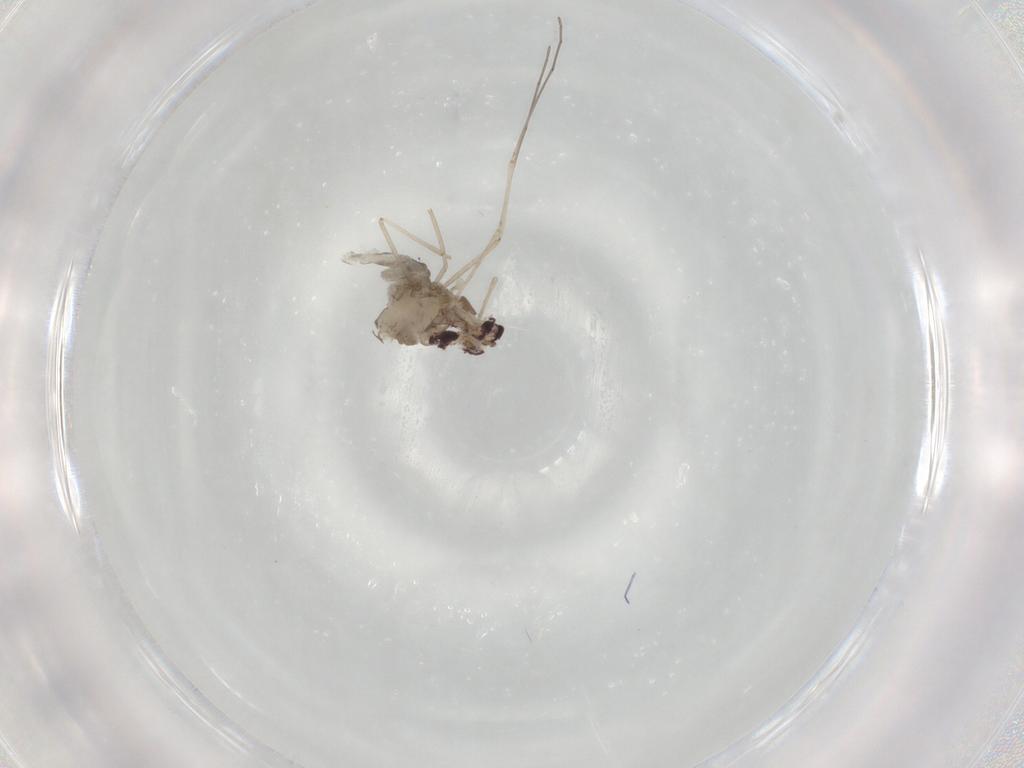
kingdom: Animalia
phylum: Arthropoda
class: Insecta
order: Diptera
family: Cecidomyiidae
